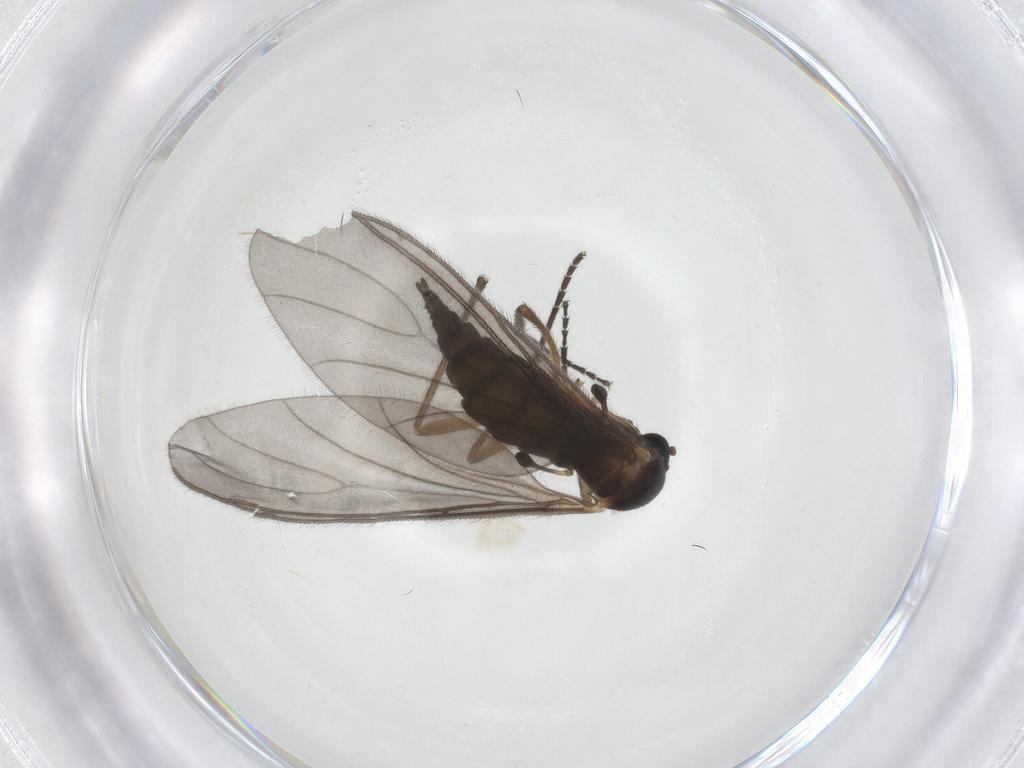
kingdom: Animalia
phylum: Arthropoda
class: Insecta
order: Diptera
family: Sciaridae
